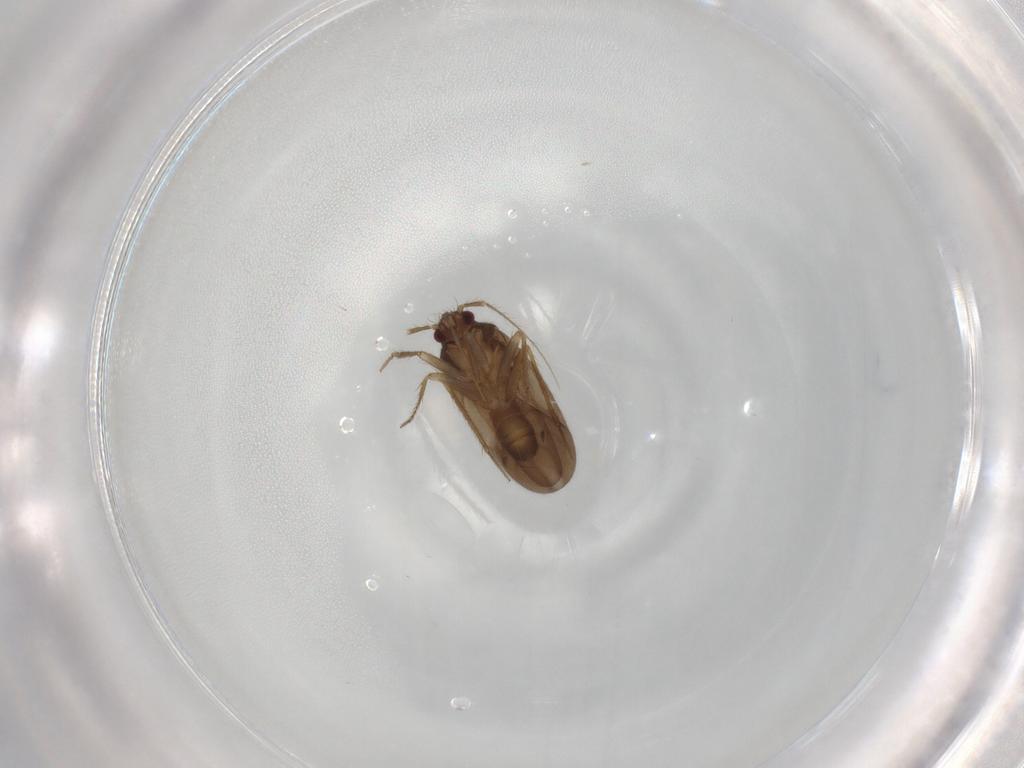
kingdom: Animalia
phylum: Arthropoda
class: Insecta
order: Hemiptera
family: Ceratocombidae
